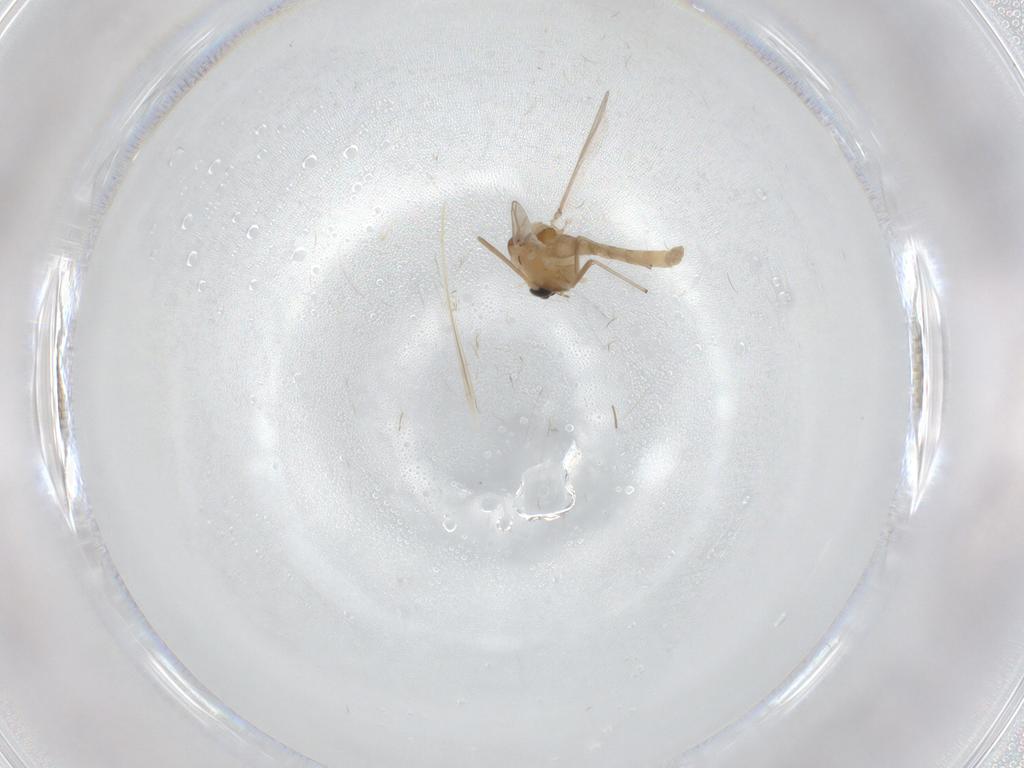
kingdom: Animalia
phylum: Arthropoda
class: Insecta
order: Diptera
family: Chironomidae
